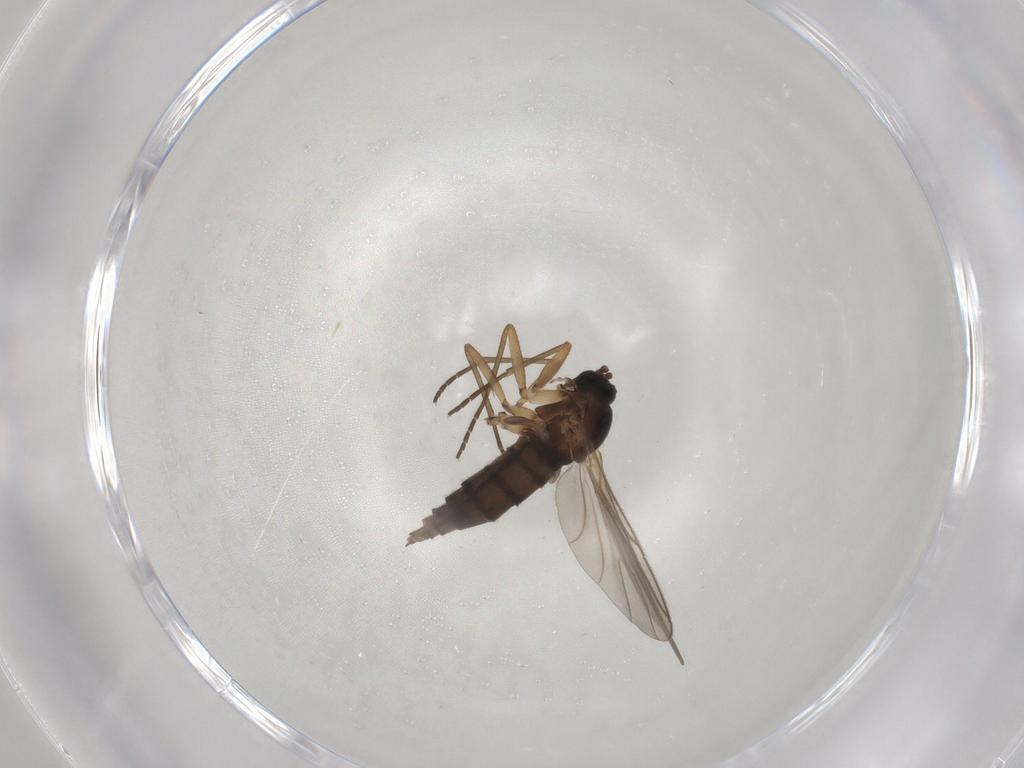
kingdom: Animalia
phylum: Arthropoda
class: Insecta
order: Diptera
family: Sciaridae
